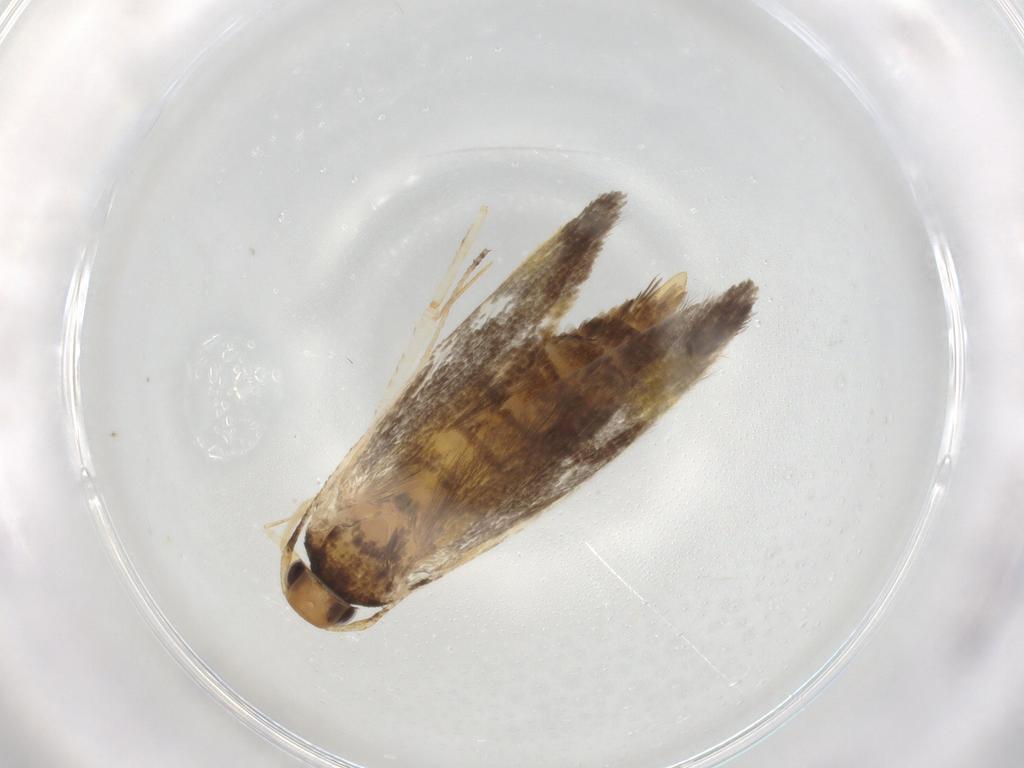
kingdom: Animalia
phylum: Arthropoda
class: Insecta
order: Lepidoptera
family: Cosmopterigidae
